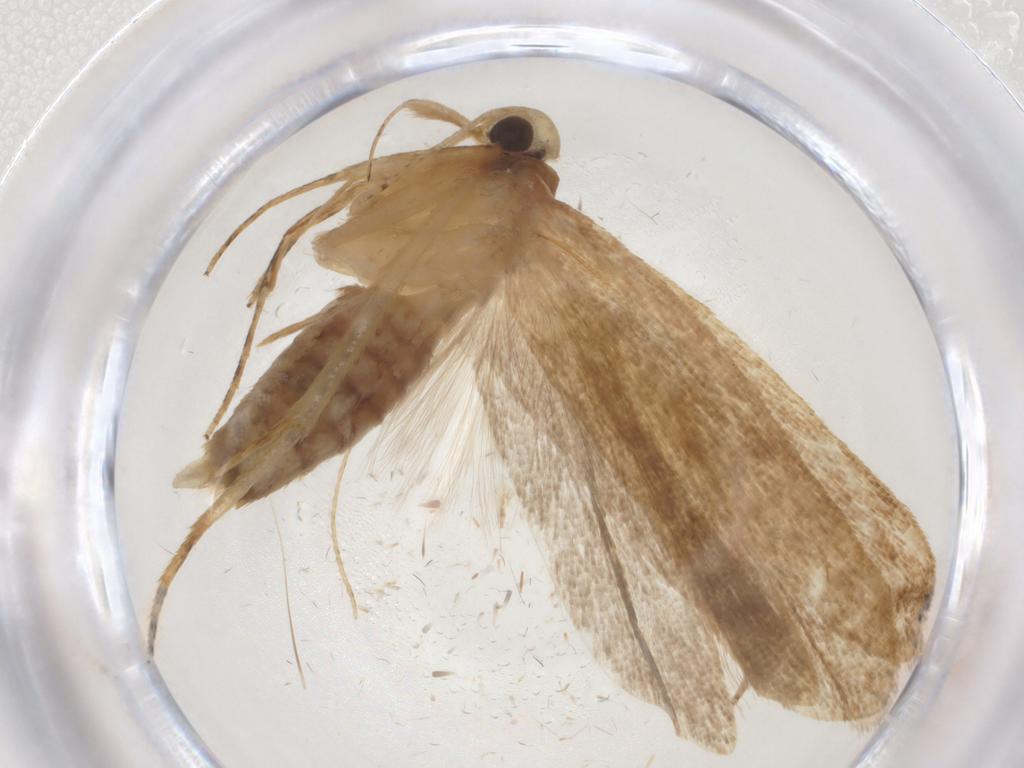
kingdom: Animalia
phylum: Arthropoda
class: Insecta
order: Lepidoptera
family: Gelechiidae
